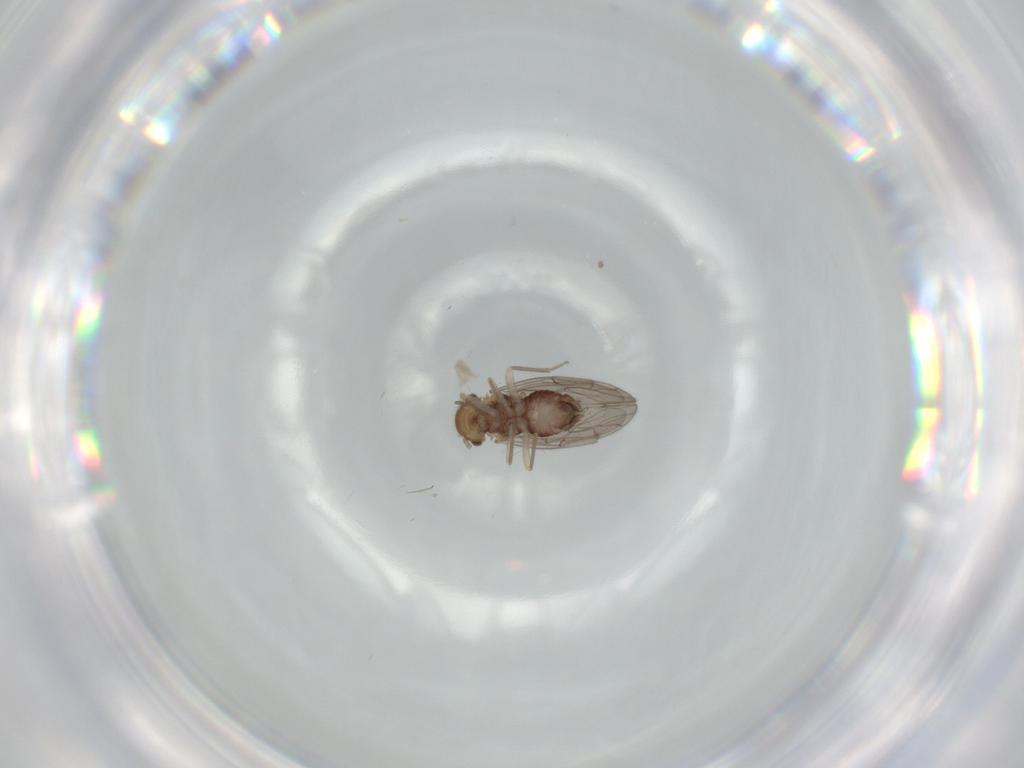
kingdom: Animalia
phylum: Arthropoda
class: Insecta
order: Psocodea
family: Ectopsocidae
